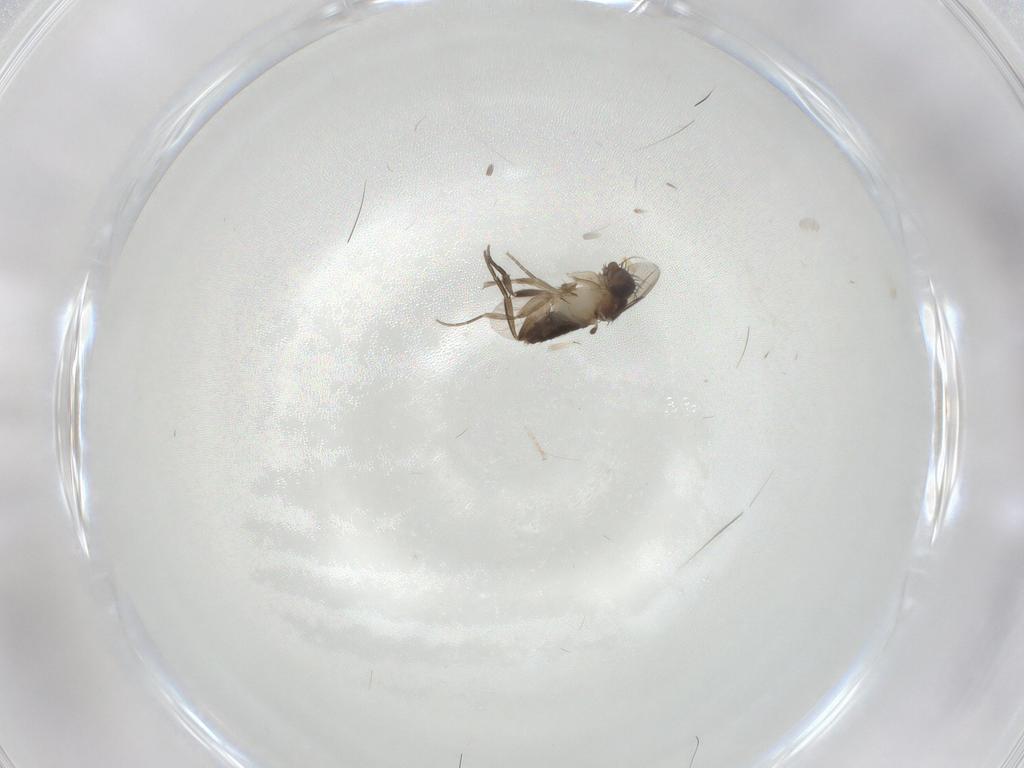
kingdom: Animalia
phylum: Arthropoda
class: Insecta
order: Diptera
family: Phoridae
